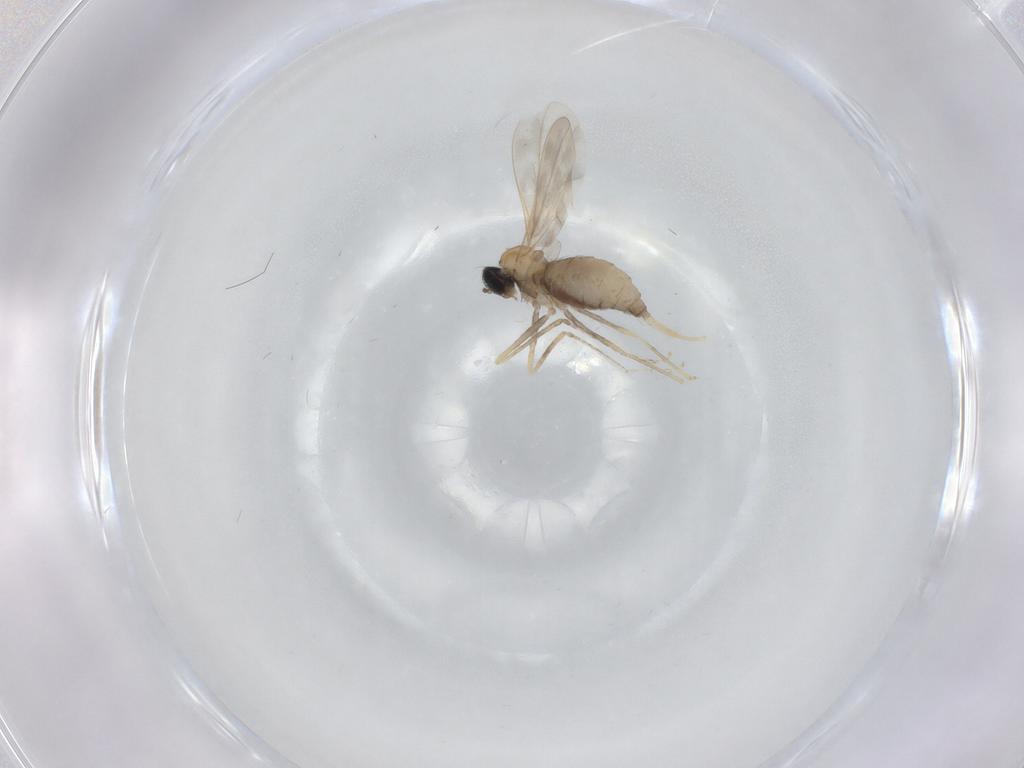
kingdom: Animalia
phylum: Arthropoda
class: Insecta
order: Diptera
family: Cecidomyiidae
